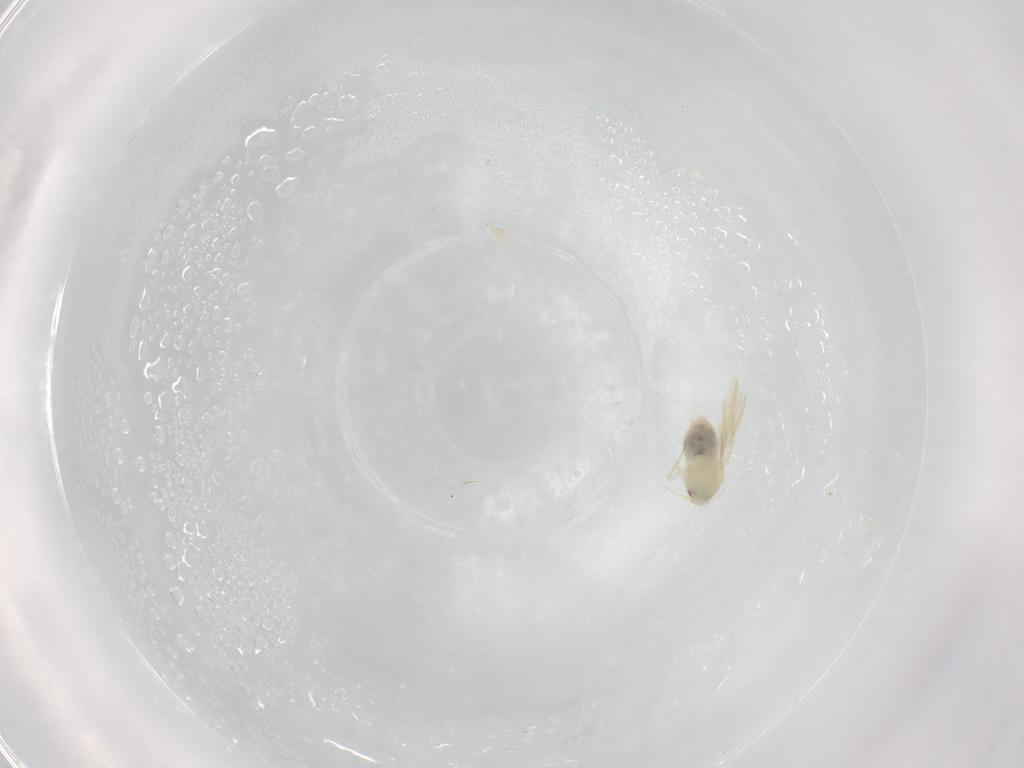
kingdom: Animalia
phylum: Arthropoda
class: Insecta
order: Hemiptera
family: Aleyrodidae
